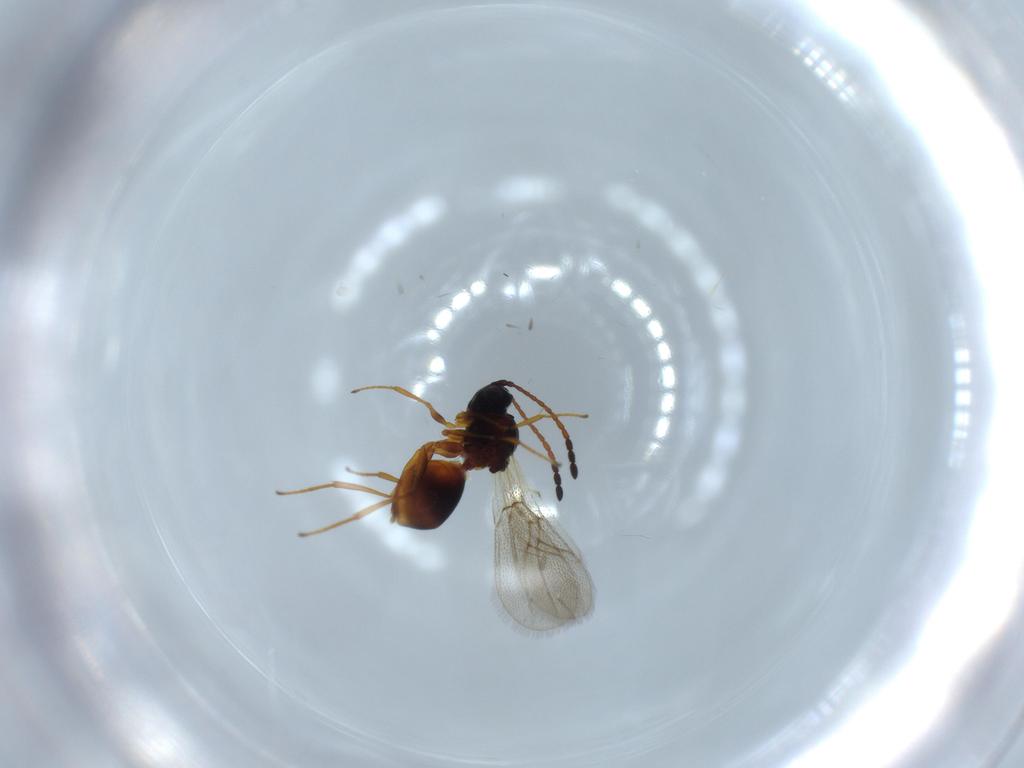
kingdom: Animalia
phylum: Arthropoda
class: Insecta
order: Hymenoptera
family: Figitidae
